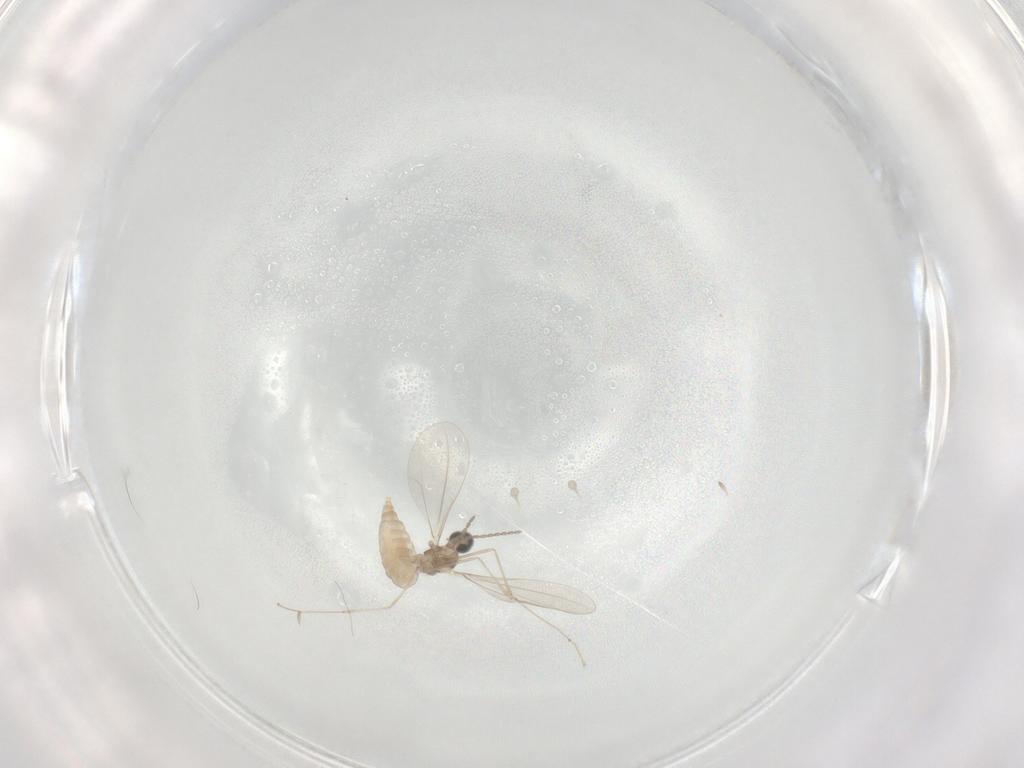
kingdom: Animalia
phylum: Arthropoda
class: Insecta
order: Diptera
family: Cecidomyiidae
